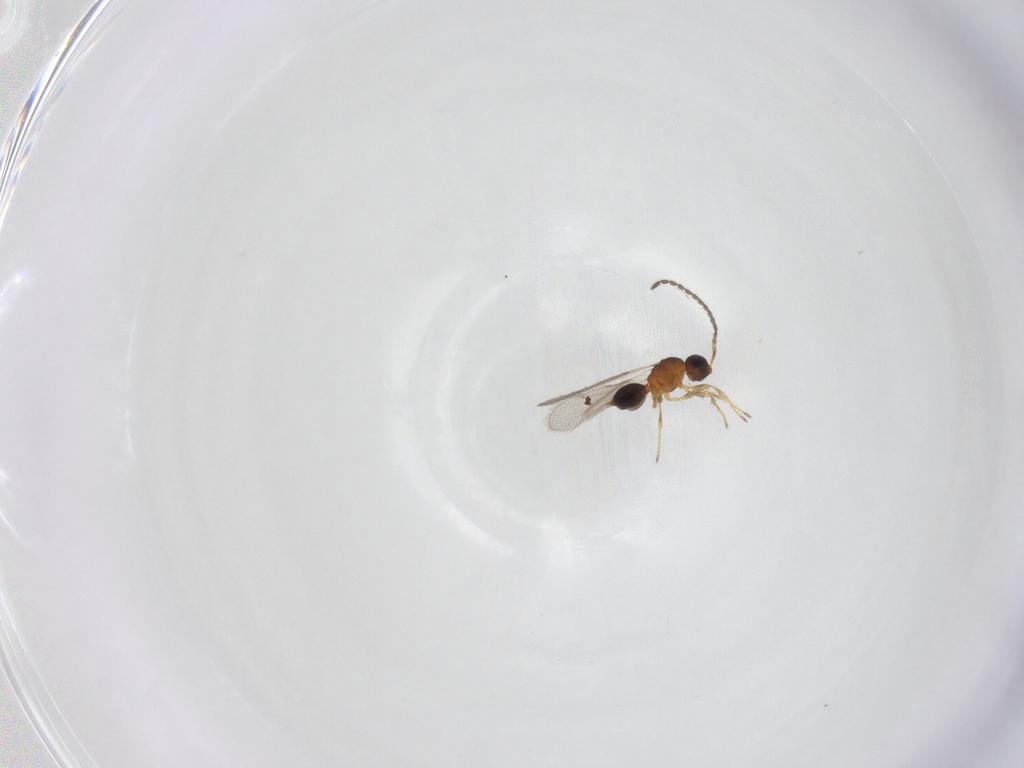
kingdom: Animalia
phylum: Arthropoda
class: Insecta
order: Hymenoptera
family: Diapriidae
